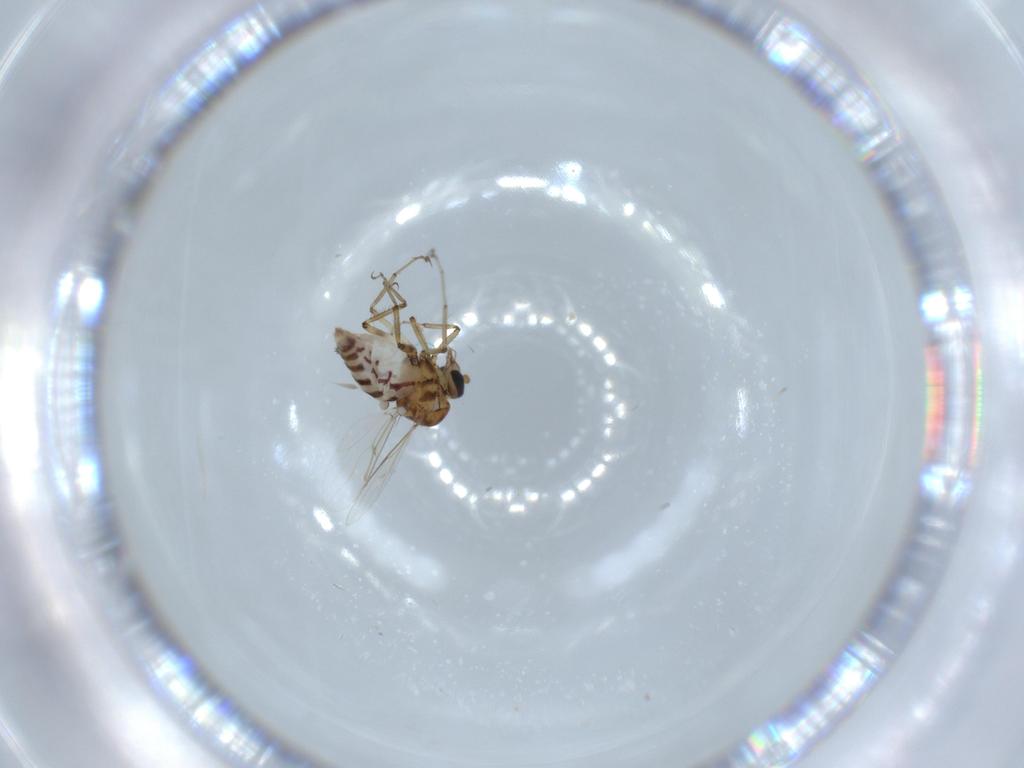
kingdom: Animalia
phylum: Arthropoda
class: Insecta
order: Diptera
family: Ceratopogonidae
